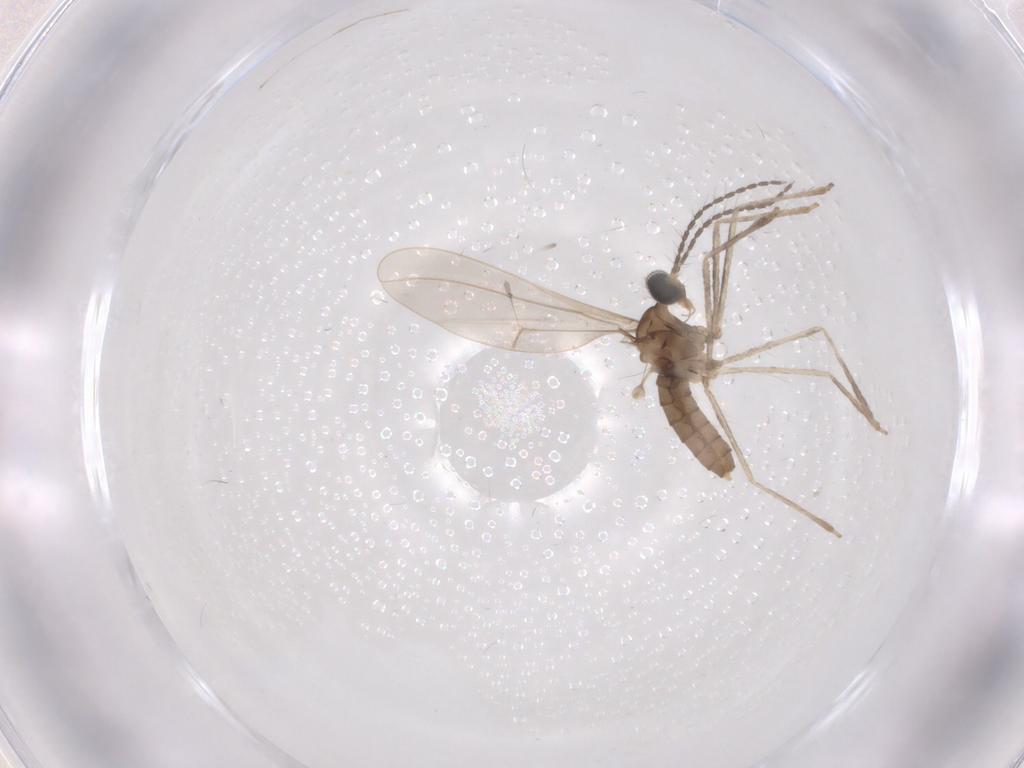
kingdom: Animalia
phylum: Arthropoda
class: Insecta
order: Diptera
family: Cecidomyiidae
